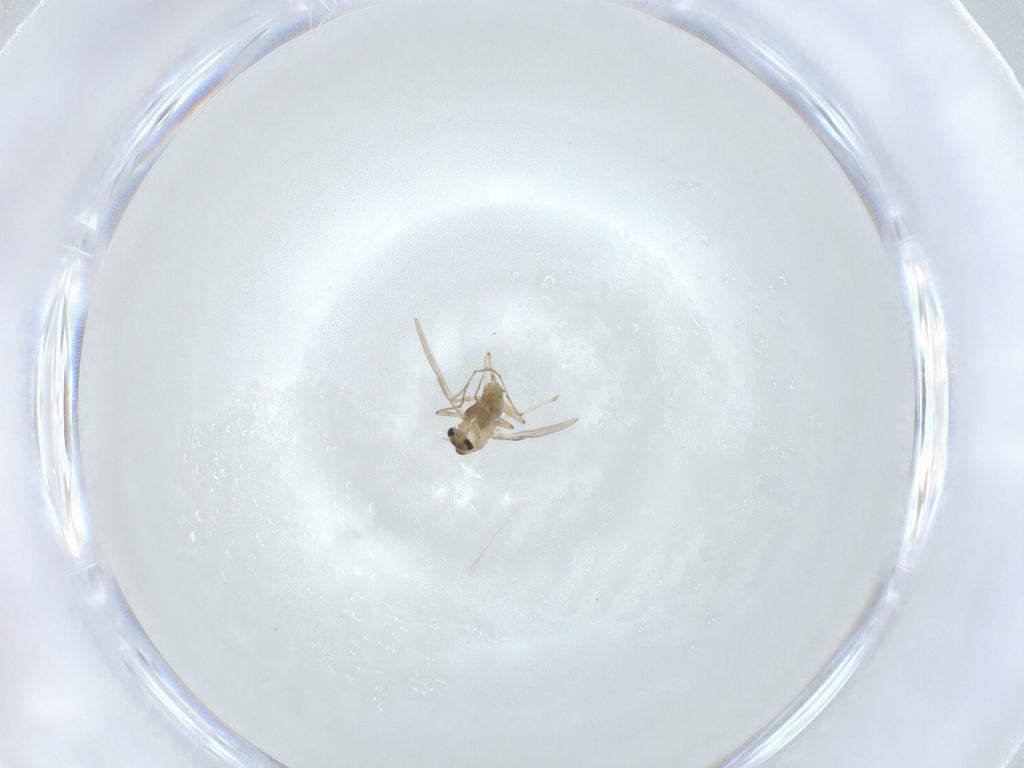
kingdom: Animalia
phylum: Arthropoda
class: Insecta
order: Diptera
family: Chironomidae
